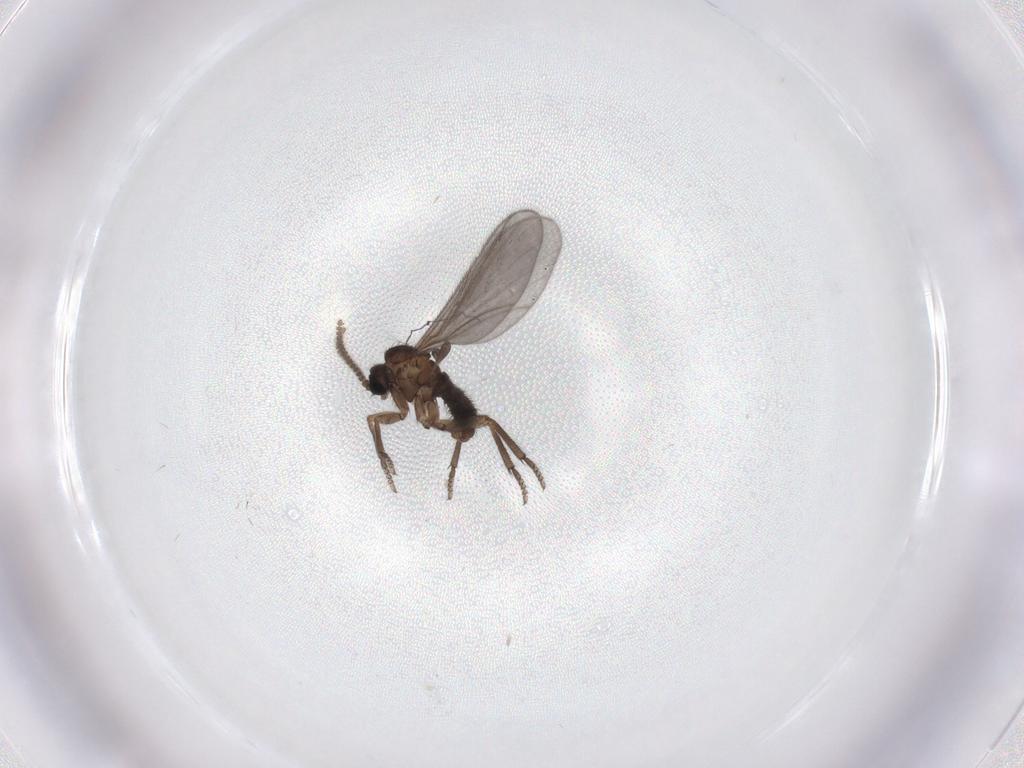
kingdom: Animalia
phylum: Arthropoda
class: Insecta
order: Diptera
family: Sciaridae
